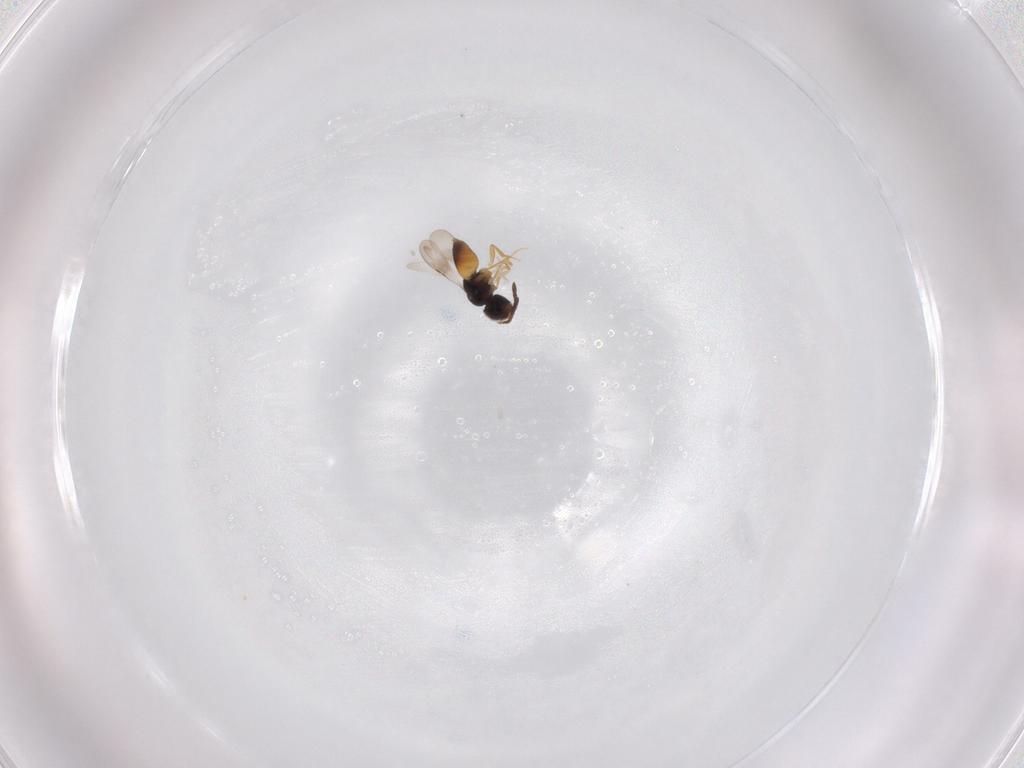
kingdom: Animalia
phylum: Arthropoda
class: Insecta
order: Hymenoptera
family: Ceraphronidae
